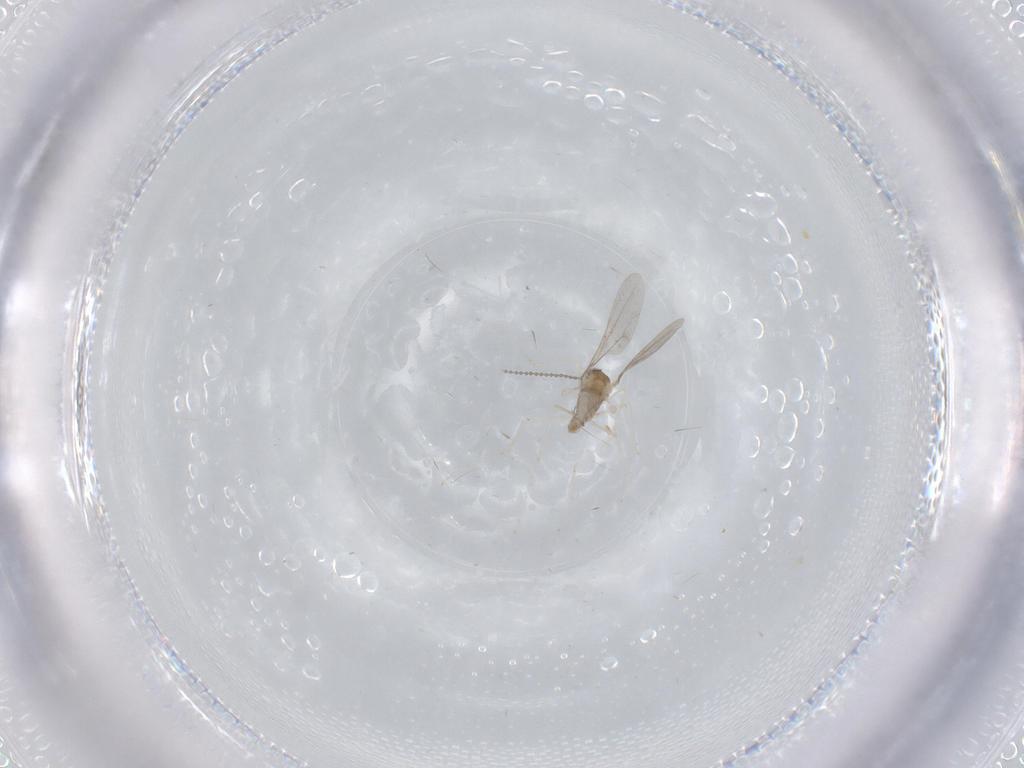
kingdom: Animalia
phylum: Arthropoda
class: Insecta
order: Diptera
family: Cecidomyiidae
